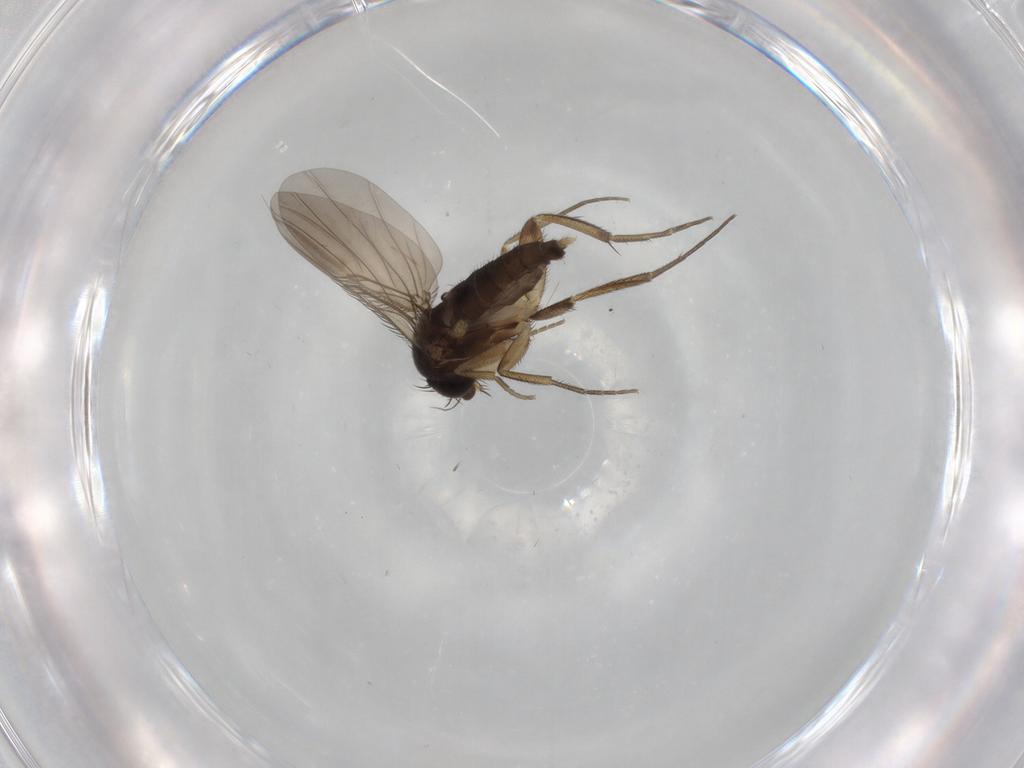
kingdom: Animalia
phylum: Arthropoda
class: Insecta
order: Diptera
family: Phoridae
